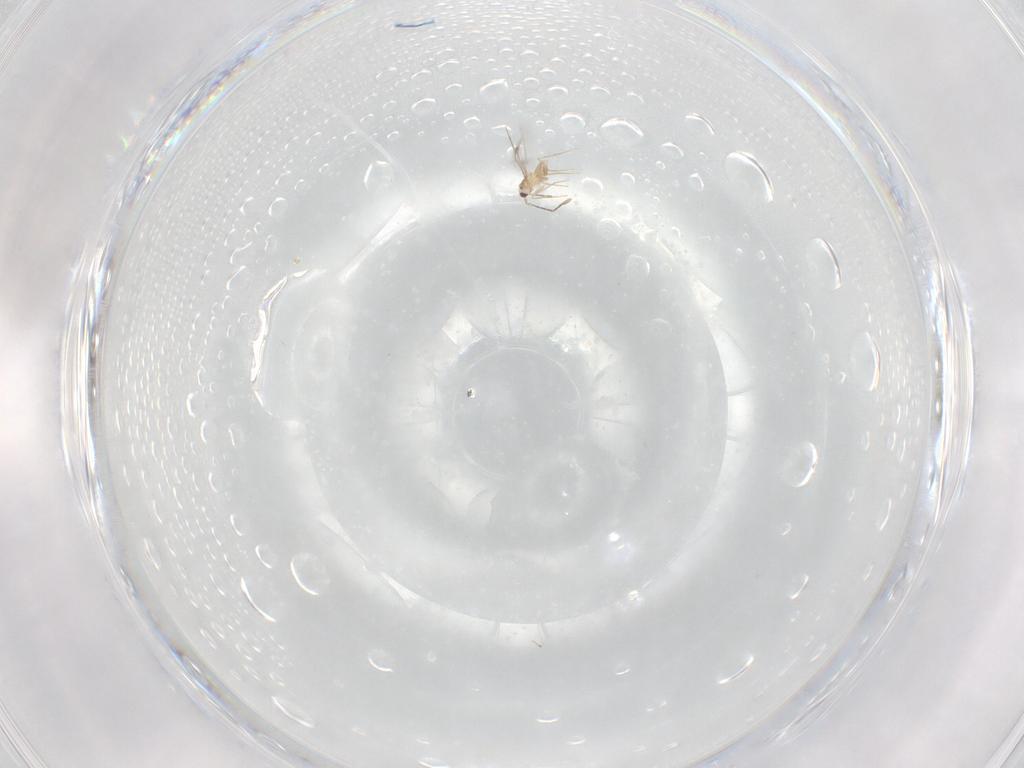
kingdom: Animalia
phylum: Arthropoda
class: Insecta
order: Hymenoptera
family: Mymaridae
